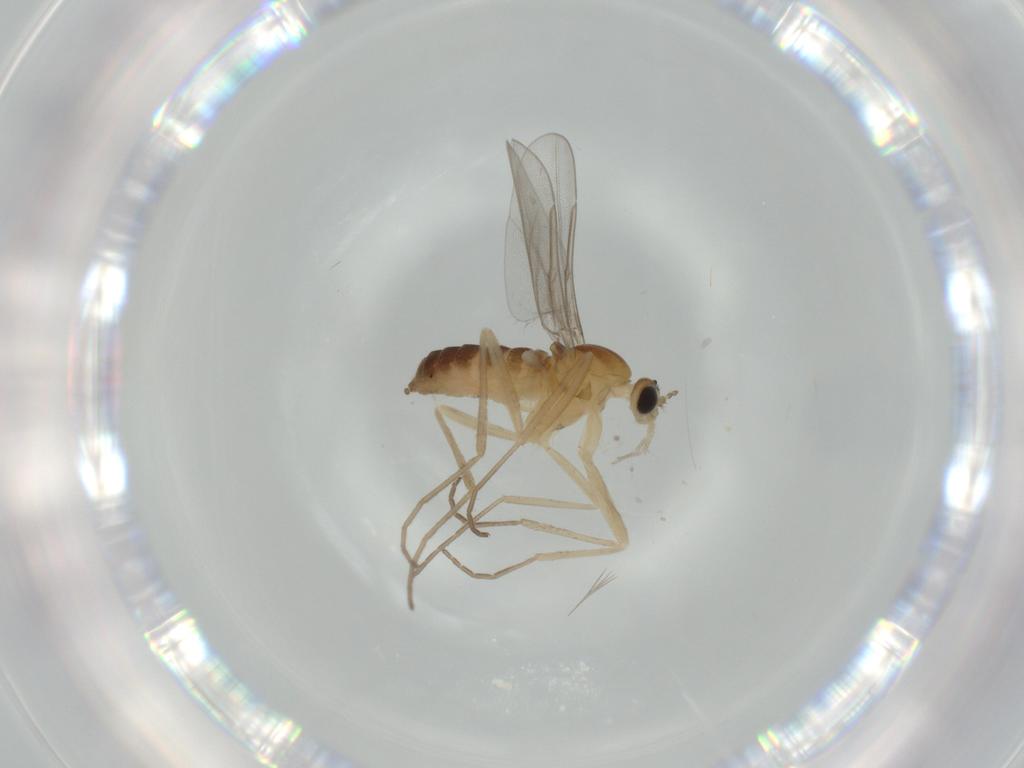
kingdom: Animalia
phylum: Arthropoda
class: Insecta
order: Diptera
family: Cecidomyiidae
